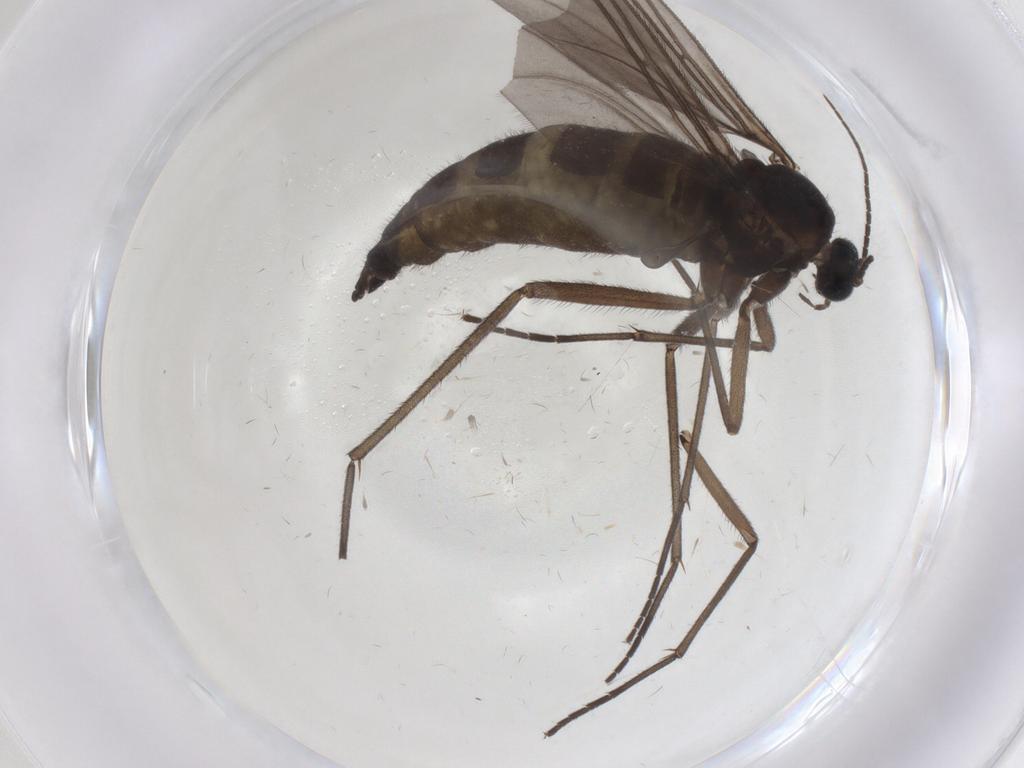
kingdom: Animalia
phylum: Arthropoda
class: Insecta
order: Diptera
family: Sciaridae
